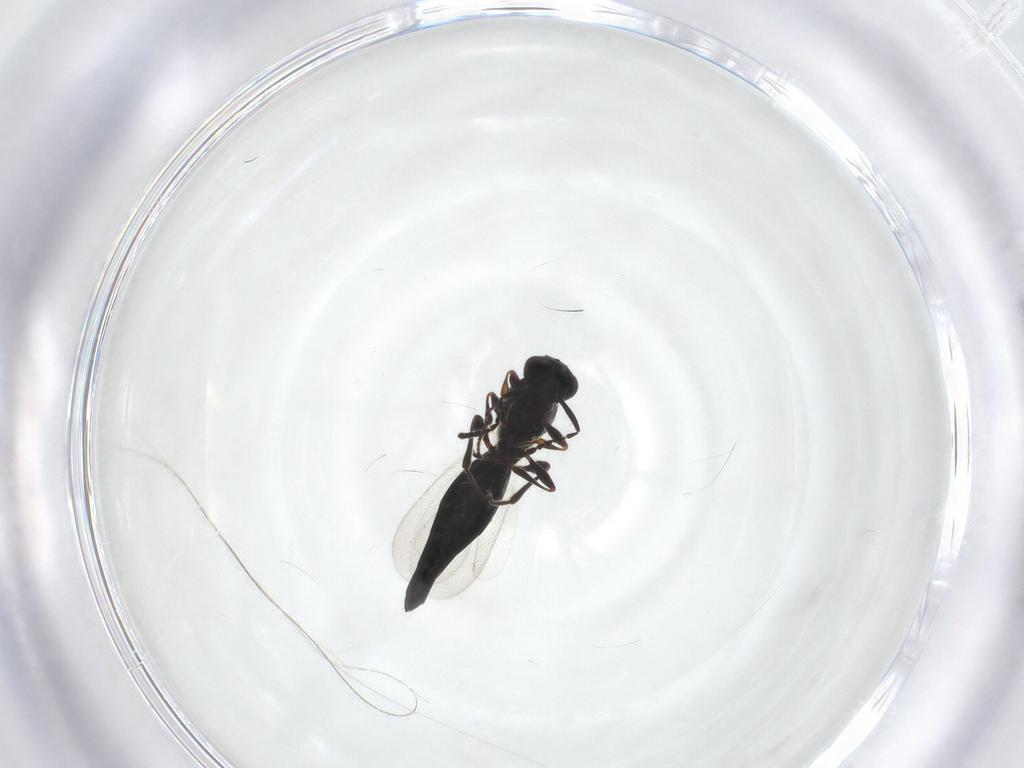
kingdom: Animalia
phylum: Arthropoda
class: Insecta
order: Hymenoptera
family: Platygastridae
